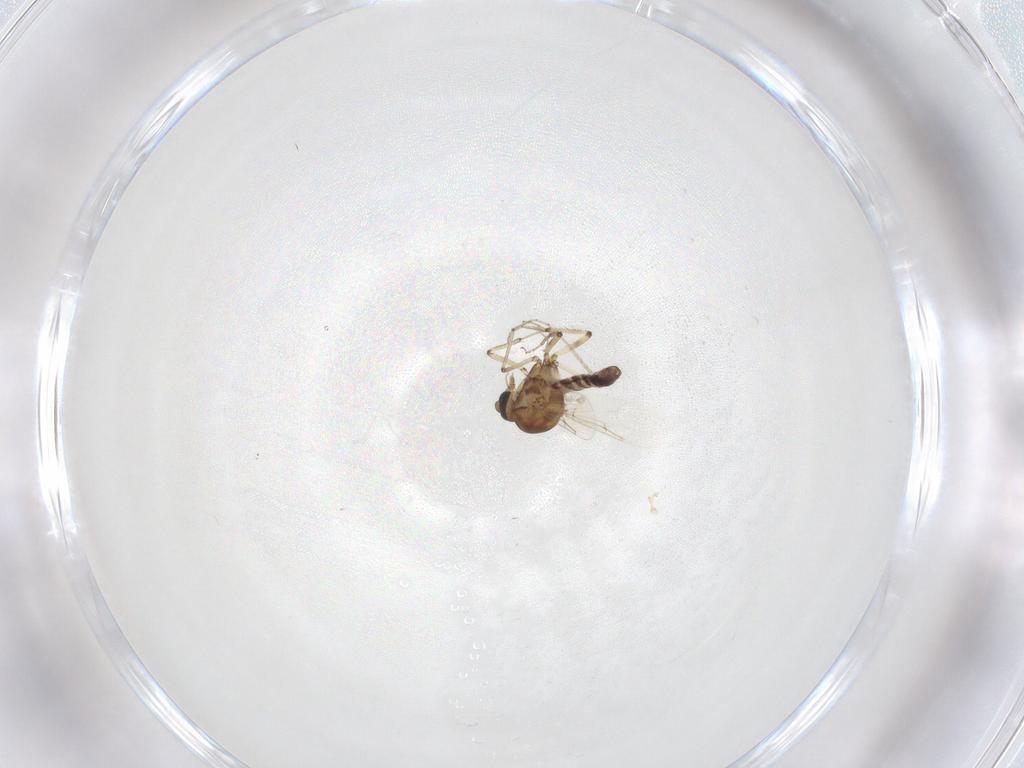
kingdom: Animalia
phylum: Arthropoda
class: Insecta
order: Diptera
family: Ceratopogonidae
